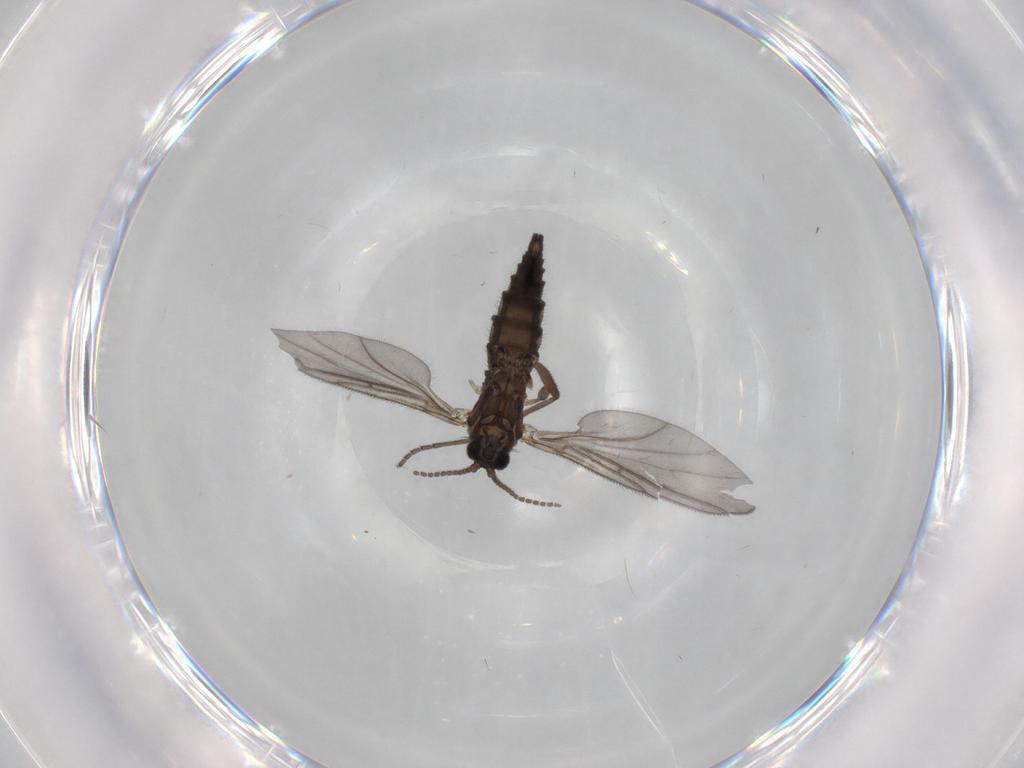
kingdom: Animalia
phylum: Arthropoda
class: Insecta
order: Diptera
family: Sciaridae
